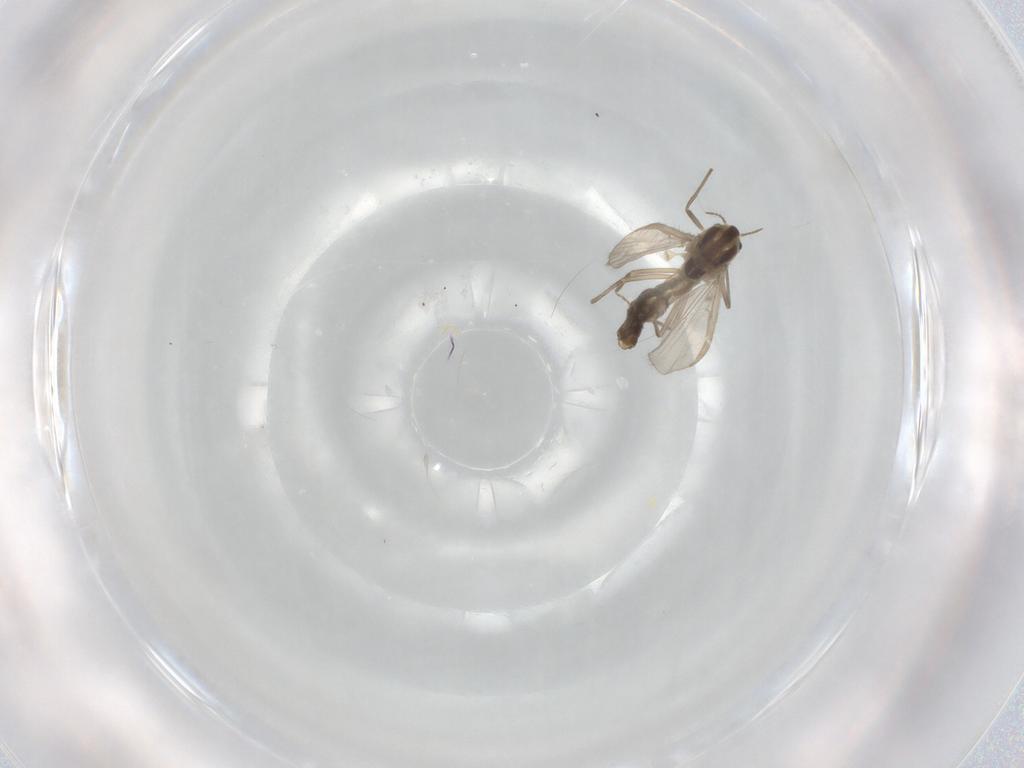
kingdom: Animalia
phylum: Arthropoda
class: Insecta
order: Diptera
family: Chironomidae
